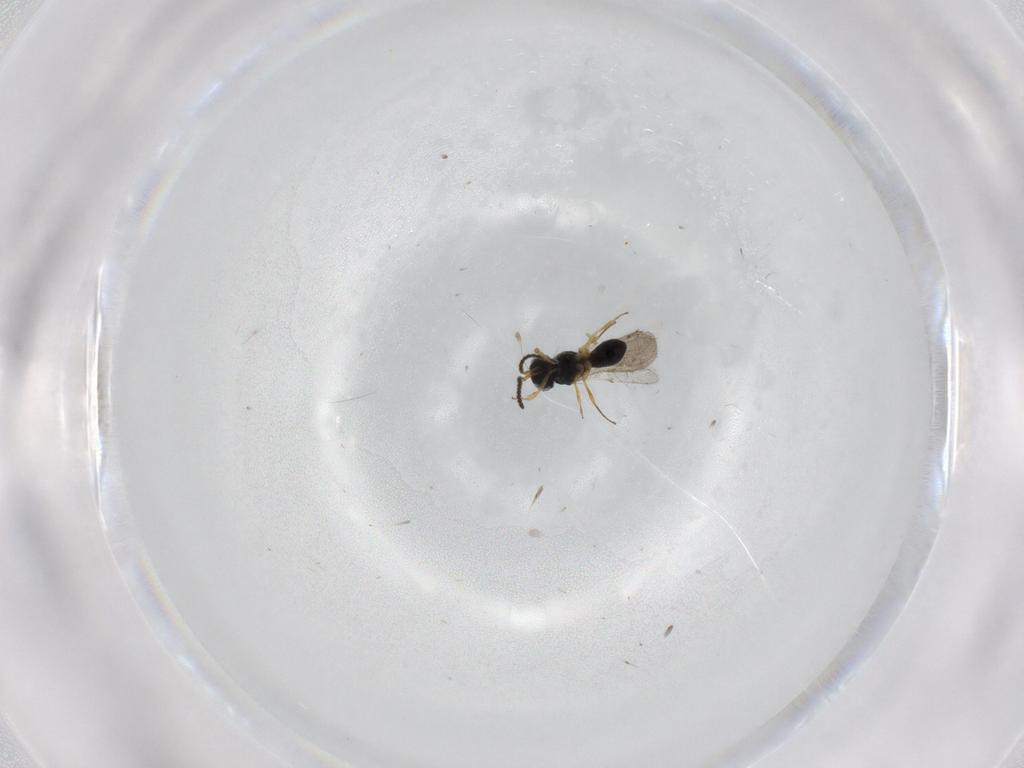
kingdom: Animalia
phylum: Arthropoda
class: Insecta
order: Hymenoptera
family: Scelionidae
